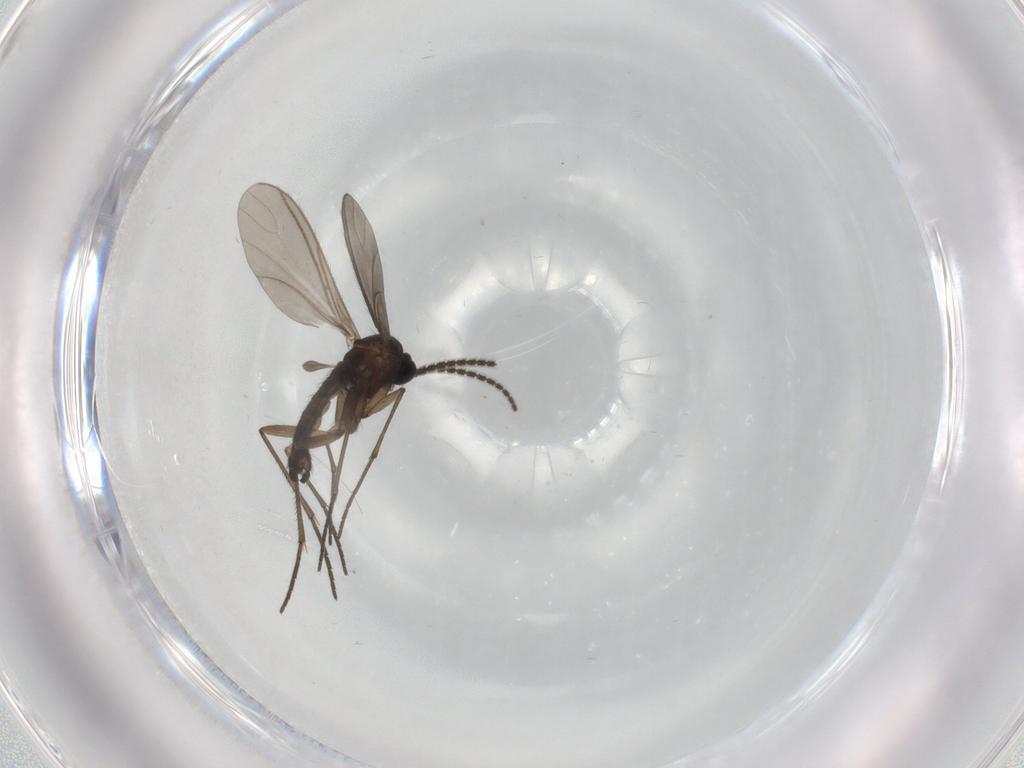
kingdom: Animalia
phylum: Arthropoda
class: Insecta
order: Diptera
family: Sciaridae
